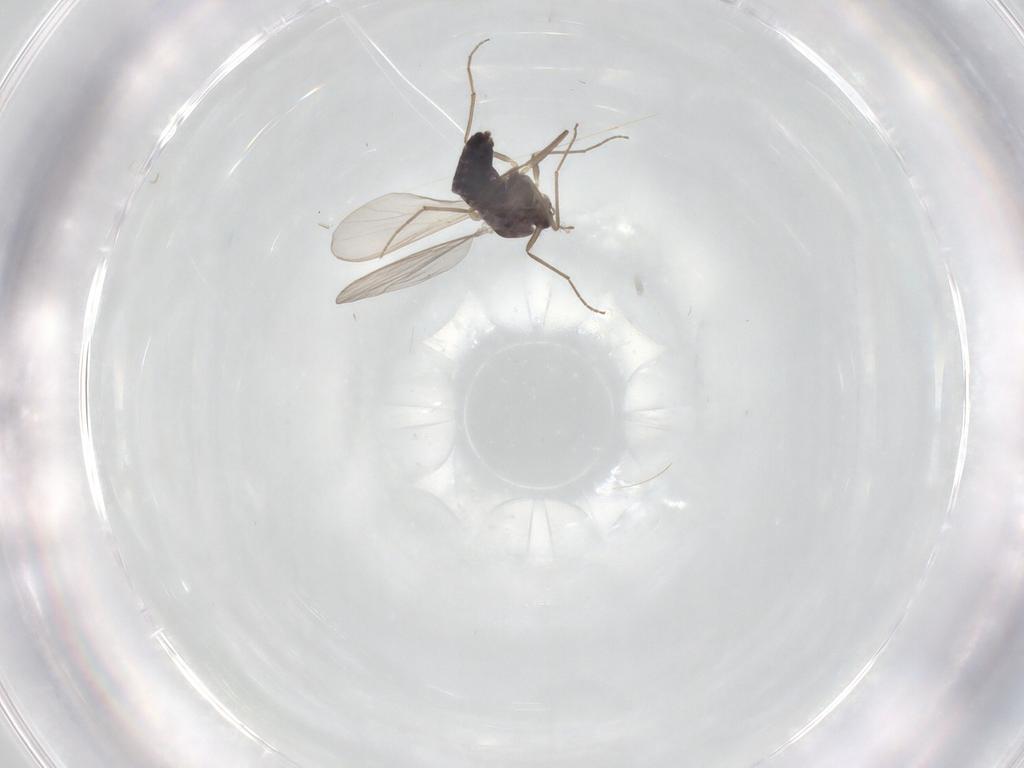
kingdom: Animalia
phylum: Arthropoda
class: Insecta
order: Diptera
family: Chironomidae
